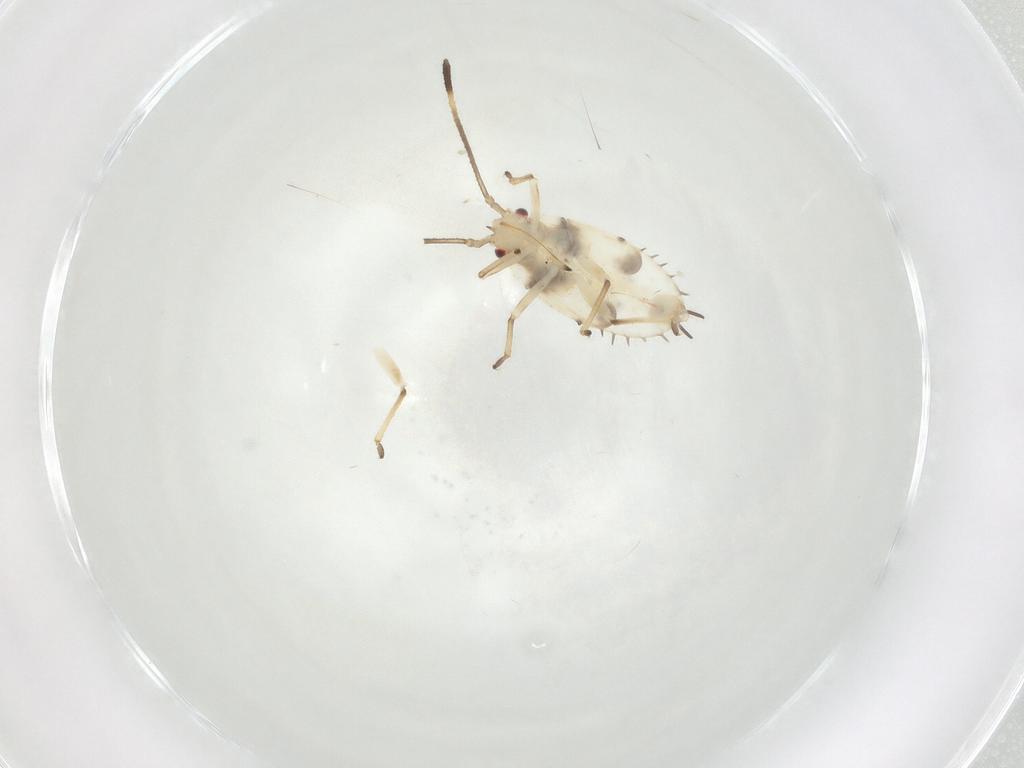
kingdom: Animalia
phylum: Arthropoda
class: Insecta
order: Hemiptera
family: Tingidae
